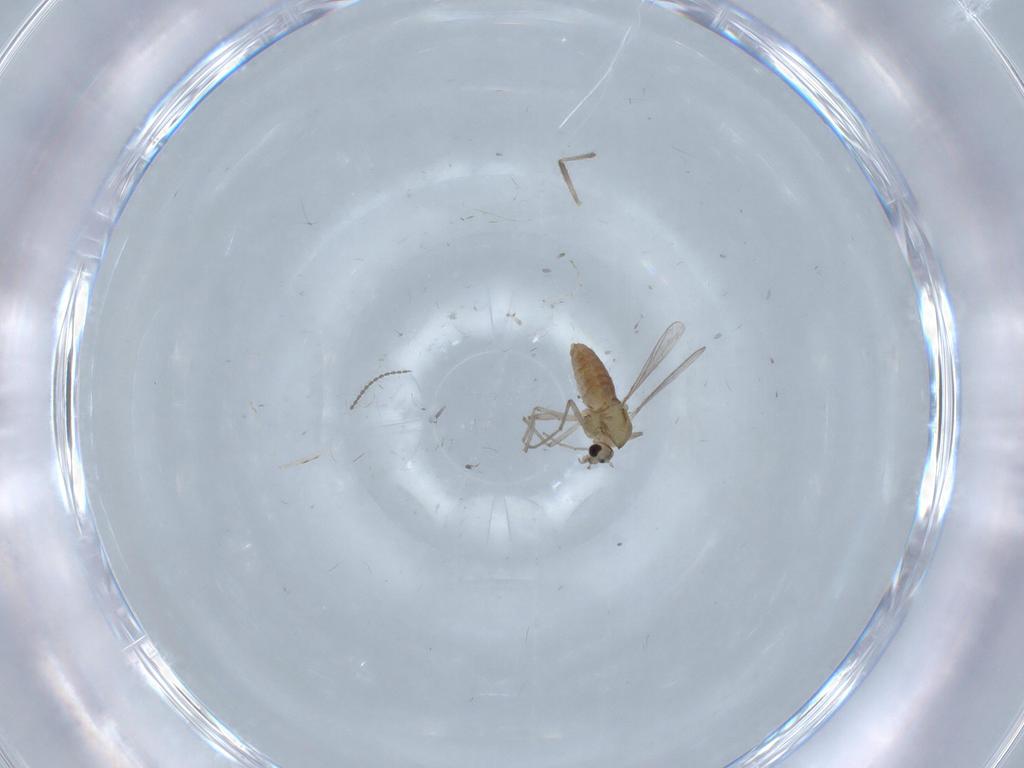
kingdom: Animalia
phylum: Arthropoda
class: Insecta
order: Diptera
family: Chironomidae
